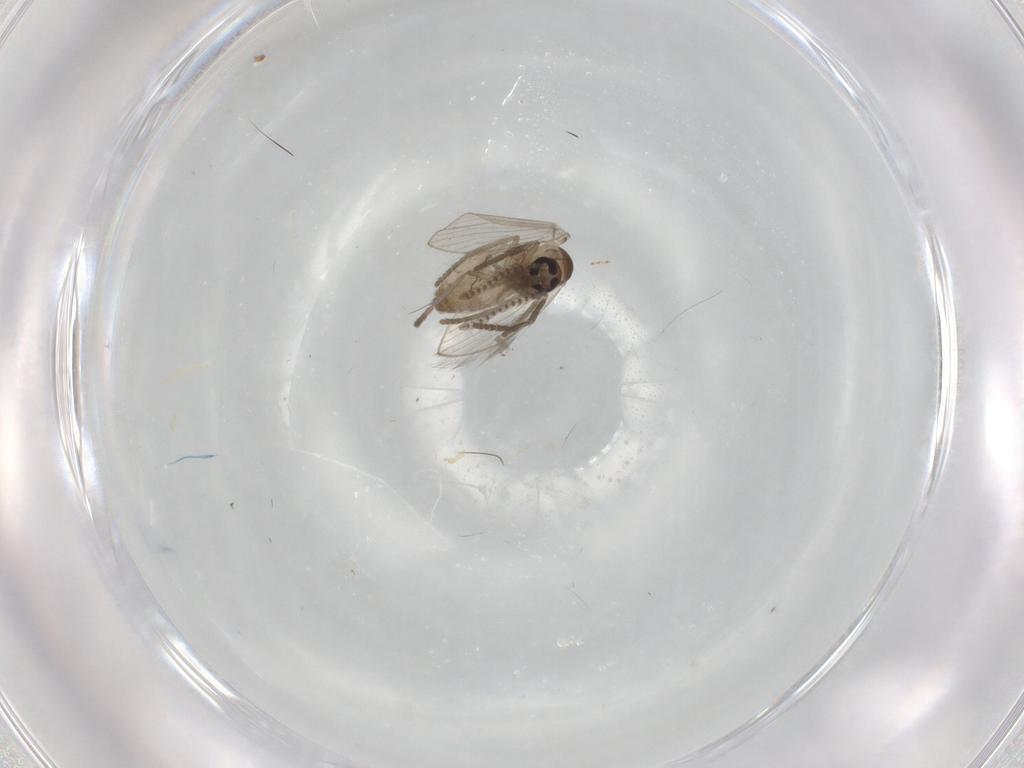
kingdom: Animalia
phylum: Arthropoda
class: Insecta
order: Diptera
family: Psychodidae
